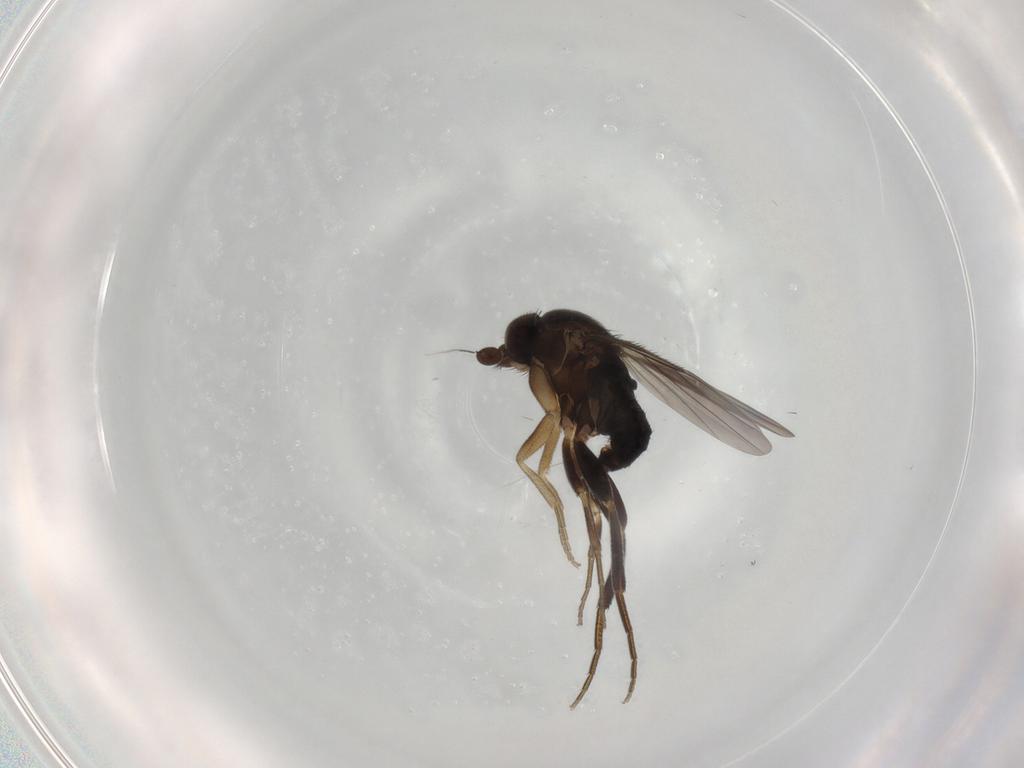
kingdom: Animalia
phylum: Arthropoda
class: Insecta
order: Diptera
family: Phoridae
